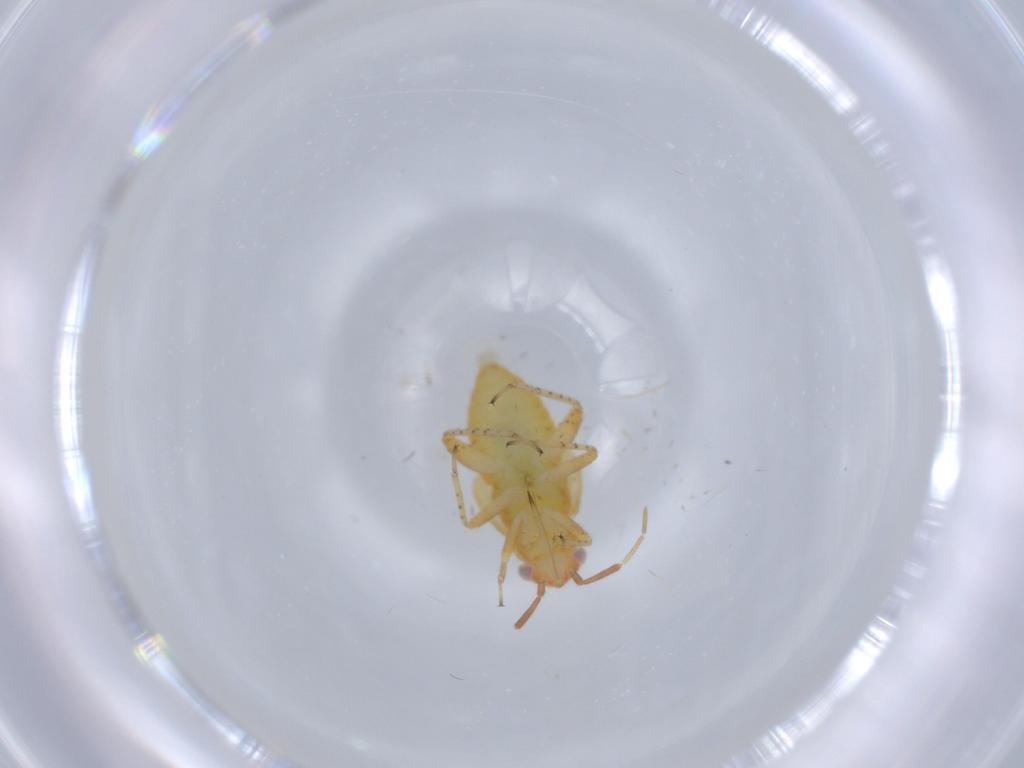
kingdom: Animalia
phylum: Arthropoda
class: Insecta
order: Hemiptera
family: Miridae
